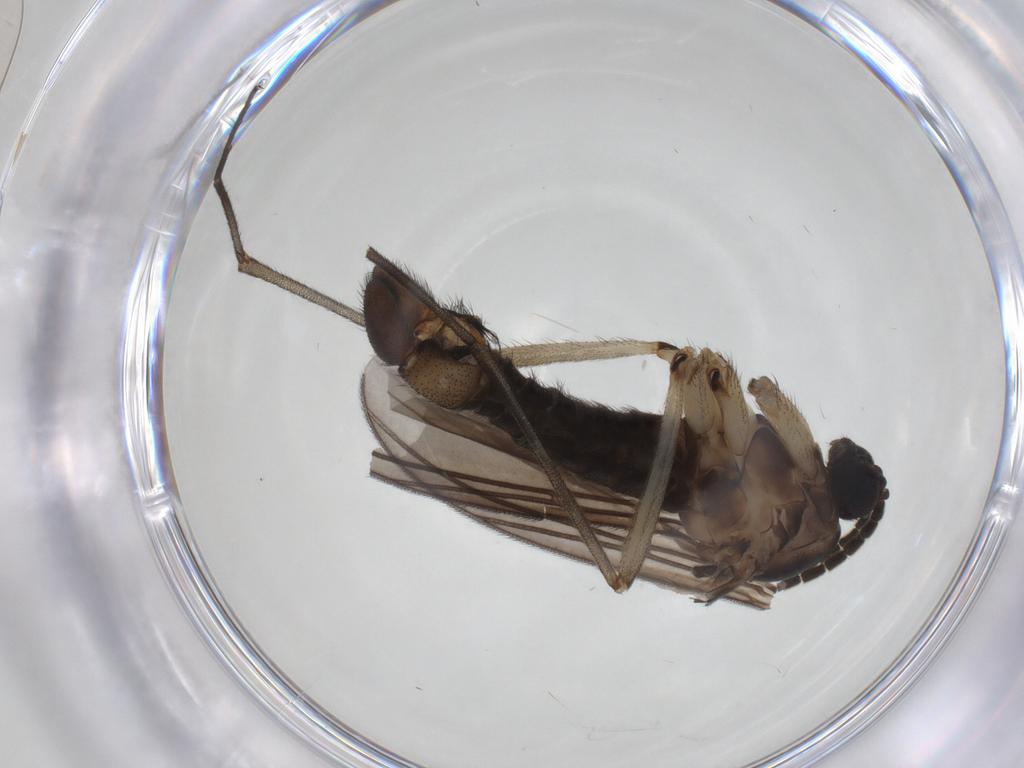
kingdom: Animalia
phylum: Arthropoda
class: Insecta
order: Diptera
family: Sciaridae
